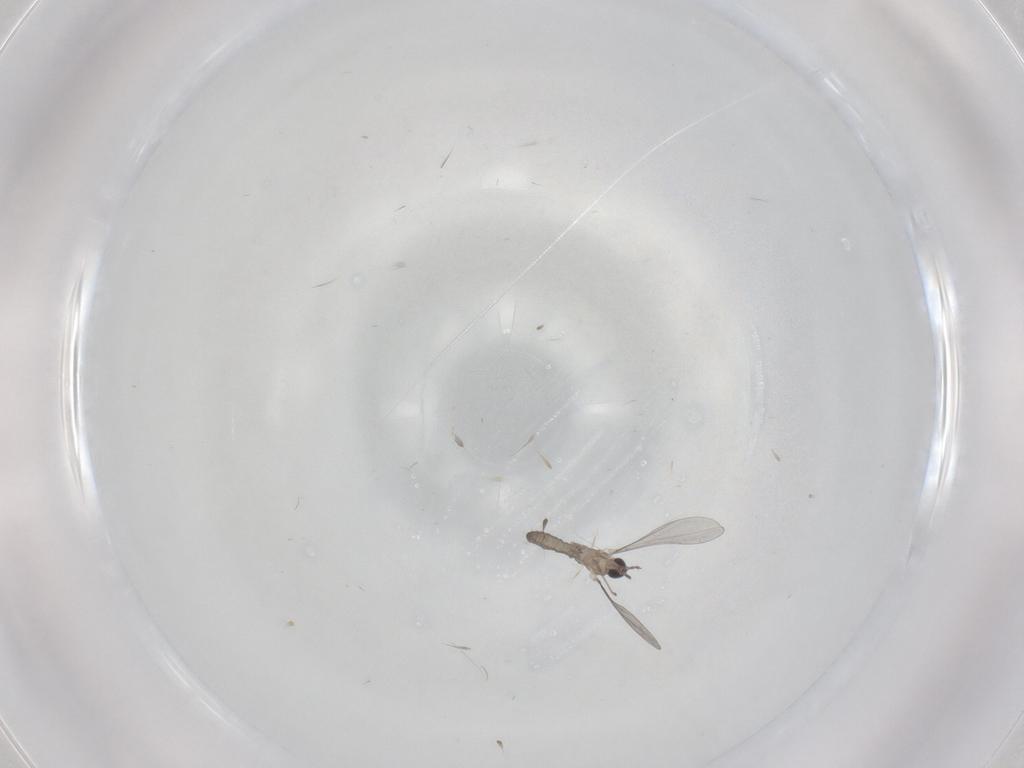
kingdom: Animalia
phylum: Arthropoda
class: Insecta
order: Diptera
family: Cecidomyiidae
